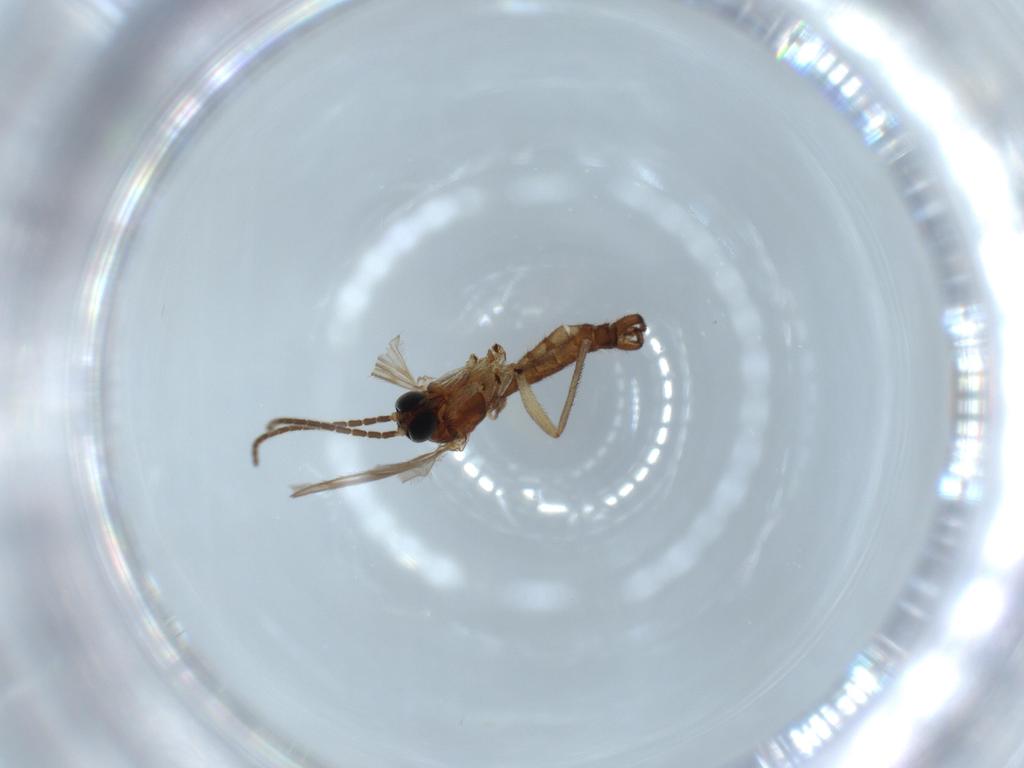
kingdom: Animalia
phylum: Arthropoda
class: Insecta
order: Diptera
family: Sciaridae
